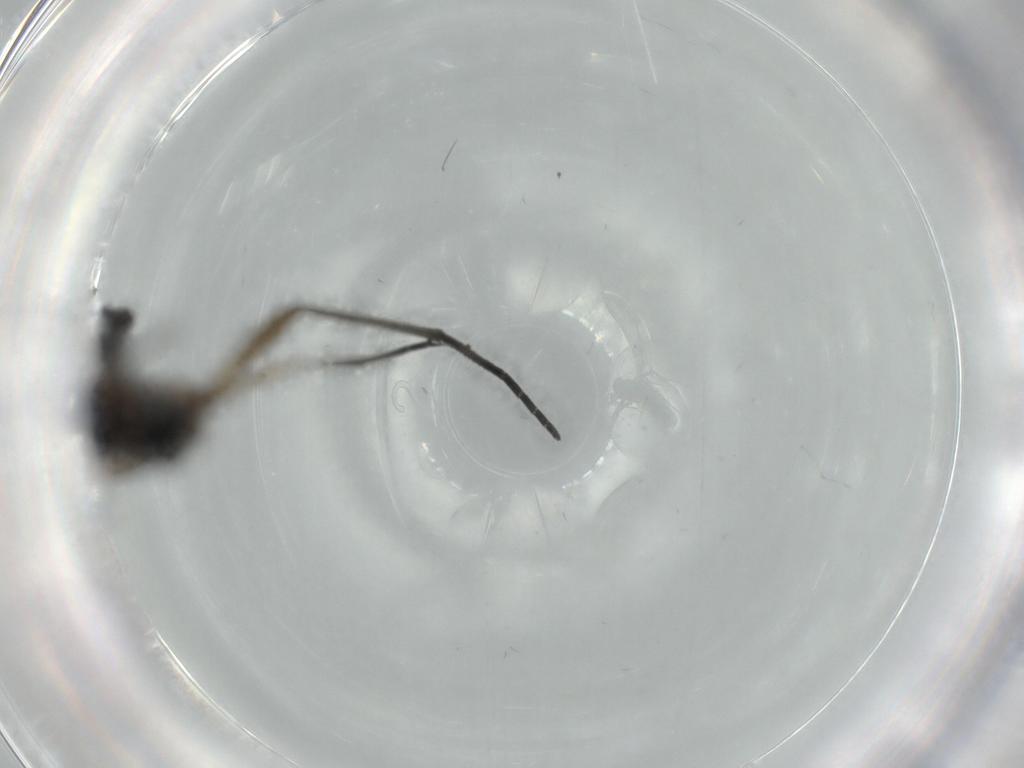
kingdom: Animalia
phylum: Arthropoda
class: Insecta
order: Diptera
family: Sciaridae
